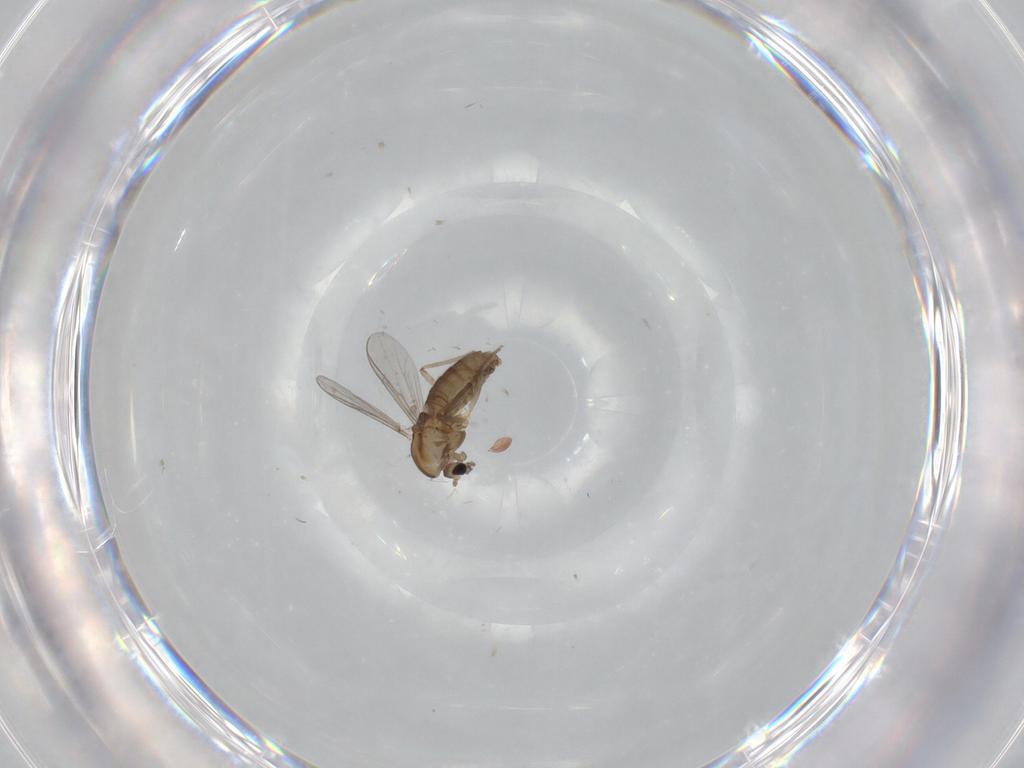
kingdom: Animalia
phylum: Arthropoda
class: Insecta
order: Diptera
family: Chironomidae
